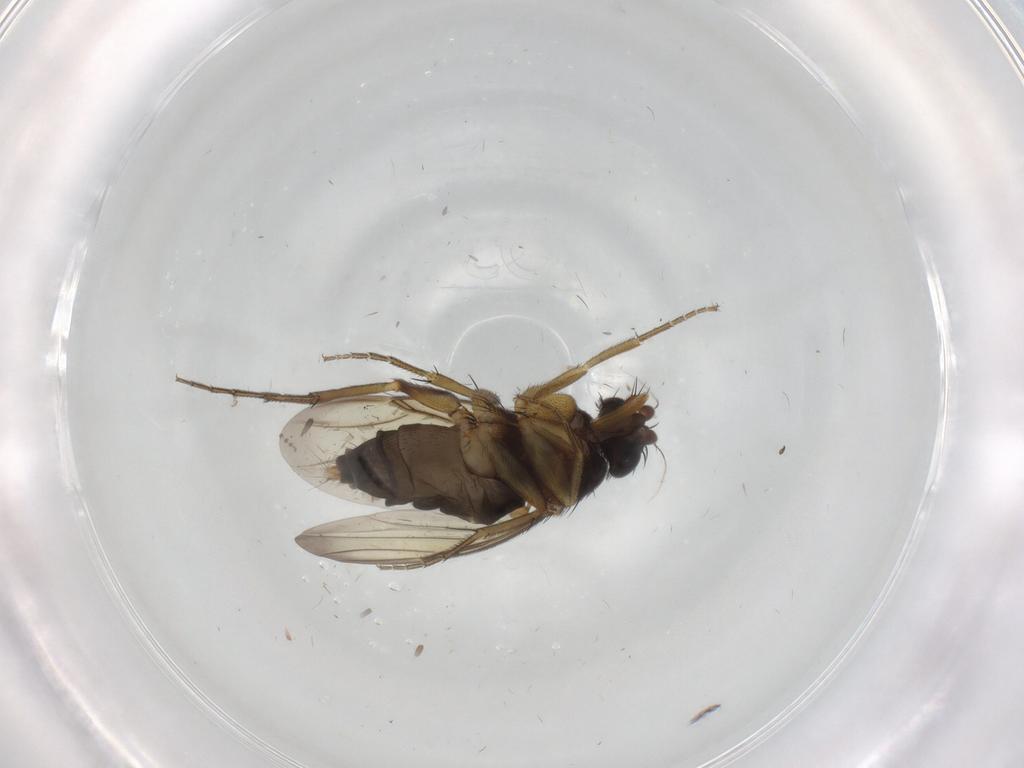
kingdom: Animalia
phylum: Arthropoda
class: Insecta
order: Diptera
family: Psychodidae
